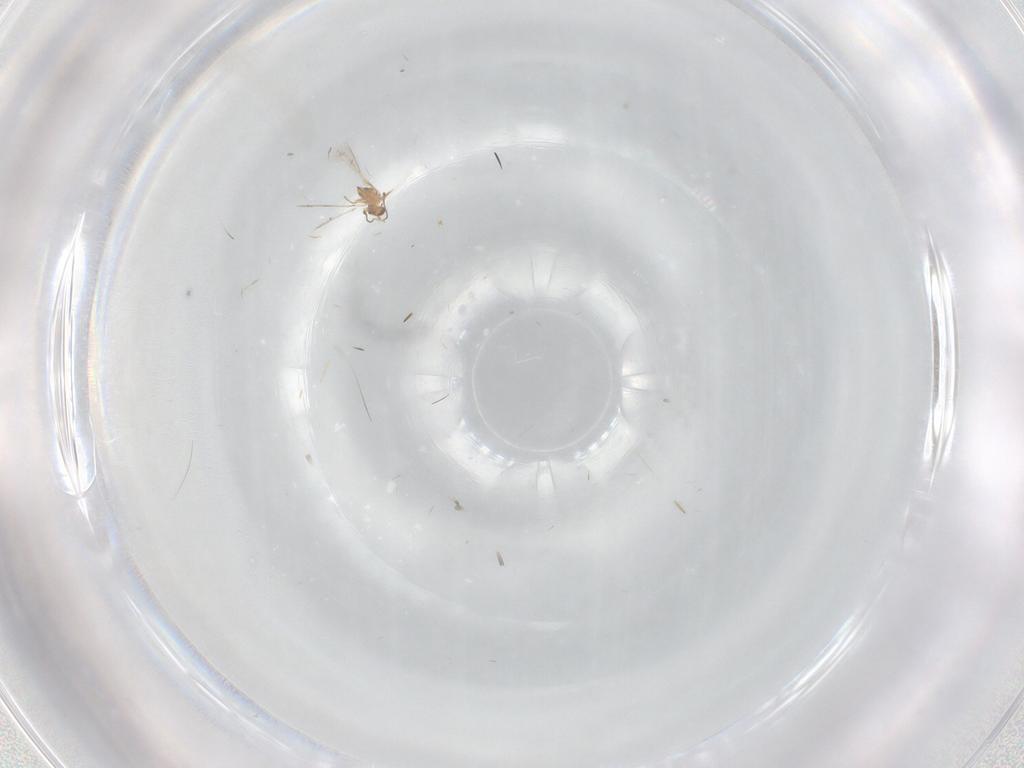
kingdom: Animalia
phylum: Arthropoda
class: Insecta
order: Hymenoptera
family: Mymaridae
